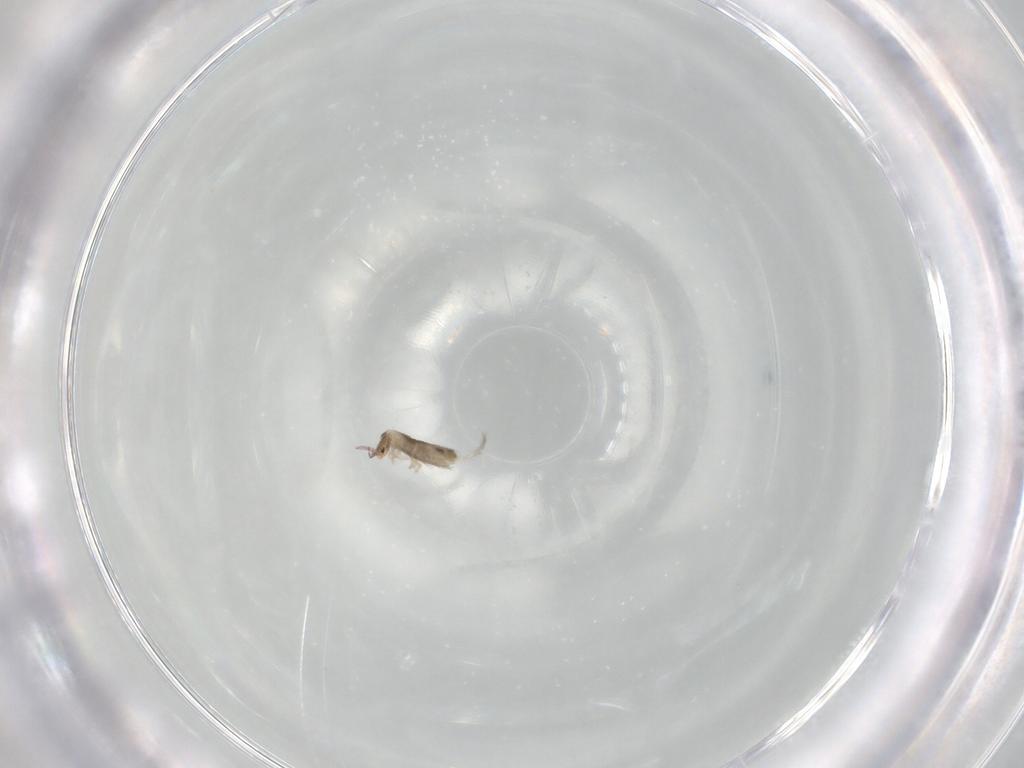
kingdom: Animalia
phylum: Arthropoda
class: Collembola
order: Entomobryomorpha
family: Entomobryidae
